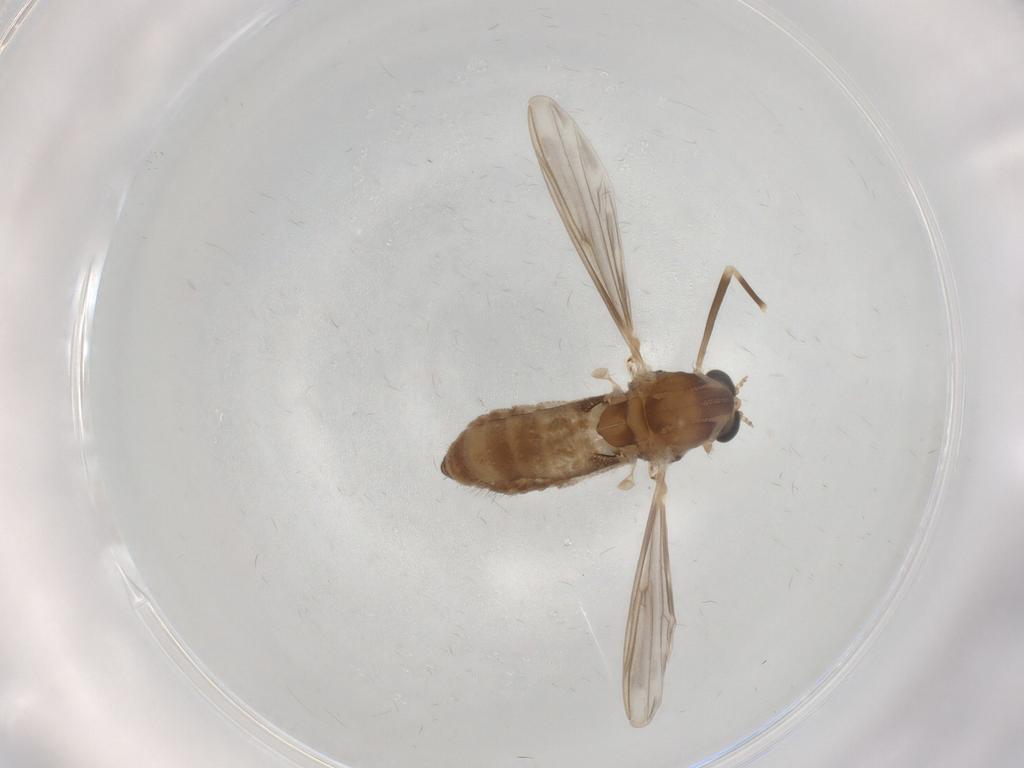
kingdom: Animalia
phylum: Arthropoda
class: Insecta
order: Diptera
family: Chironomidae
